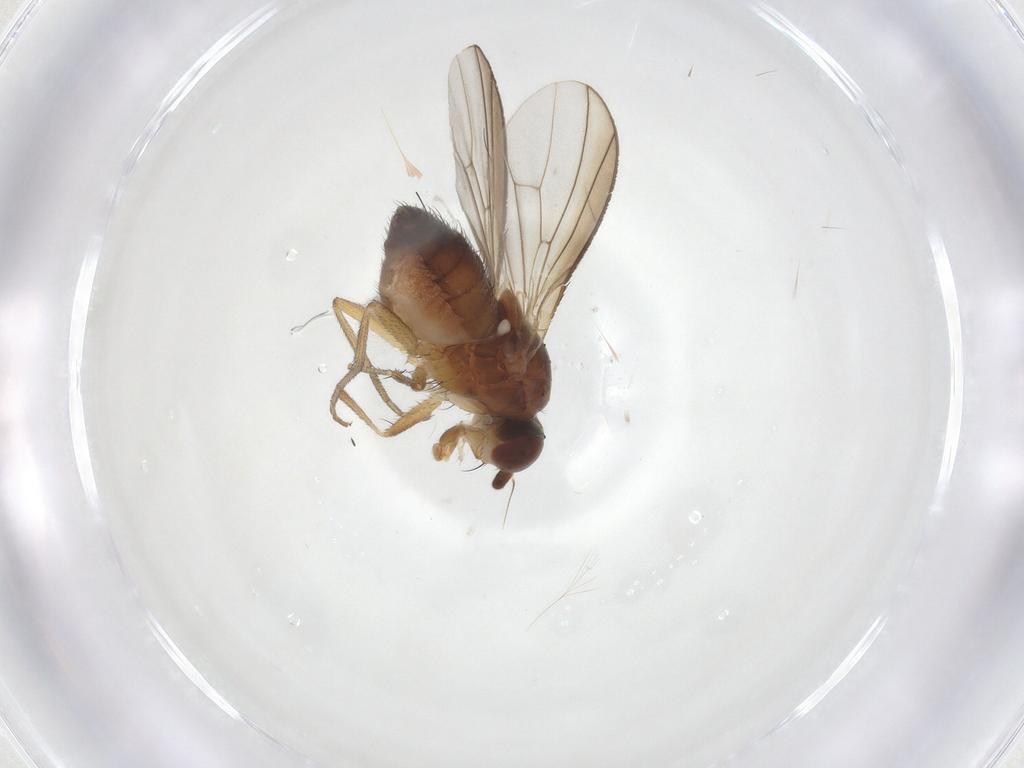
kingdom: Animalia
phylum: Arthropoda
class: Insecta
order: Diptera
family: Heleomyzidae
